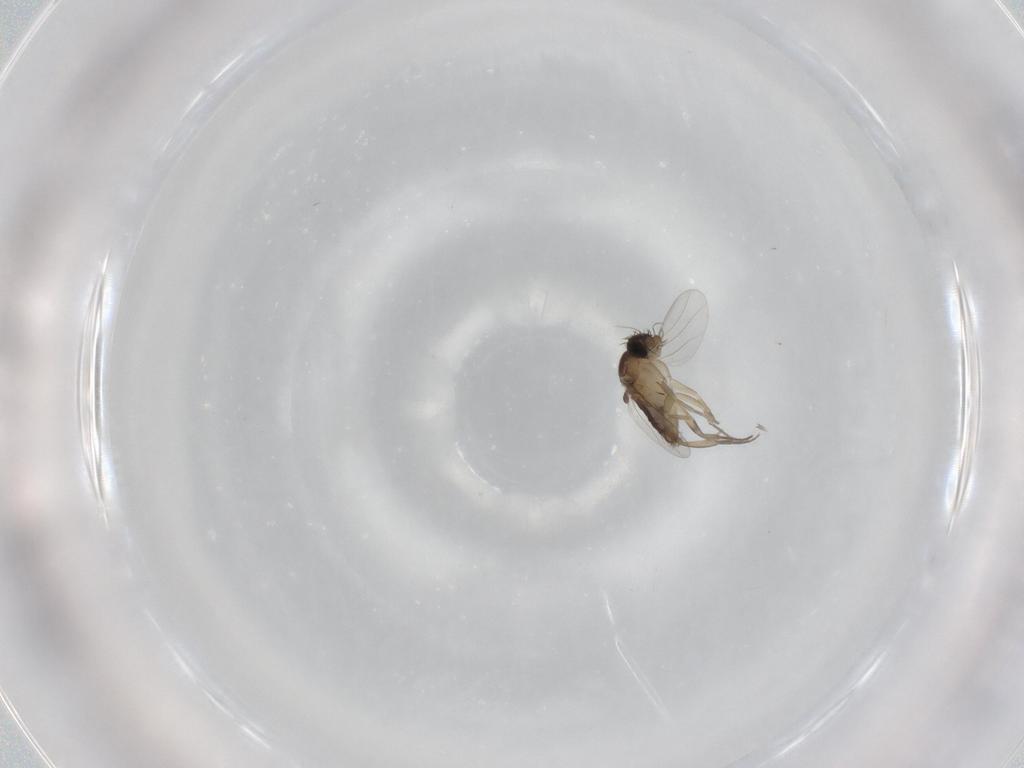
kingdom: Animalia
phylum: Arthropoda
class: Insecta
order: Diptera
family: Phoridae
